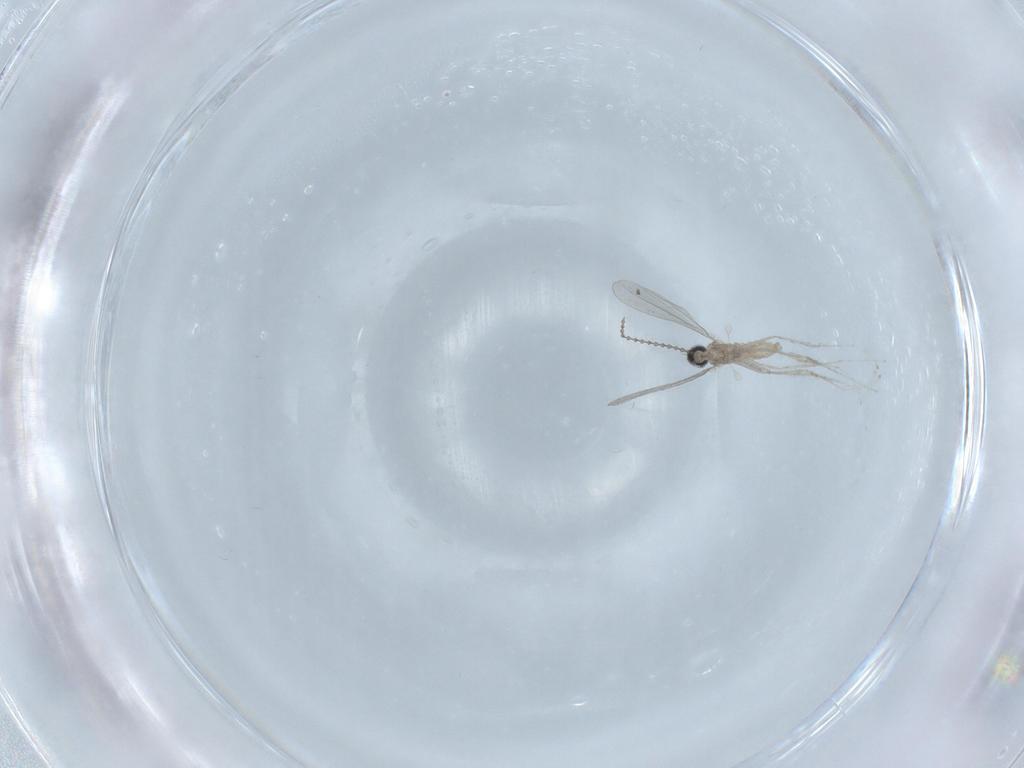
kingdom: Animalia
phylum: Arthropoda
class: Insecta
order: Diptera
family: Cecidomyiidae
